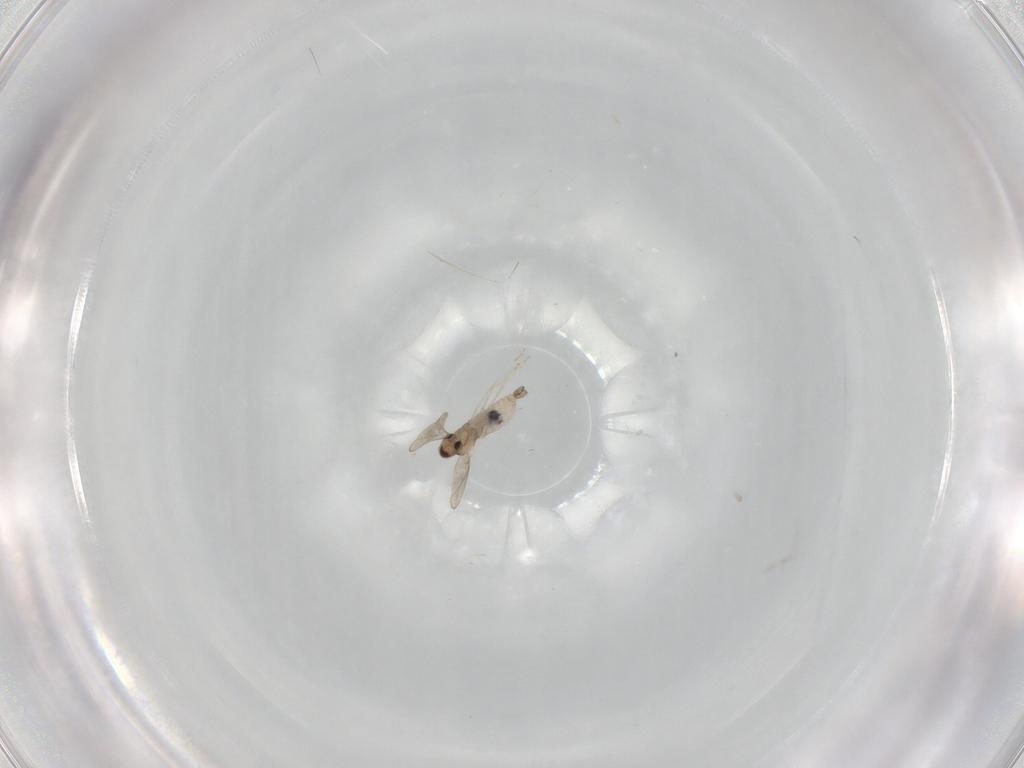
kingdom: Animalia
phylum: Arthropoda
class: Insecta
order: Diptera
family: Cecidomyiidae
